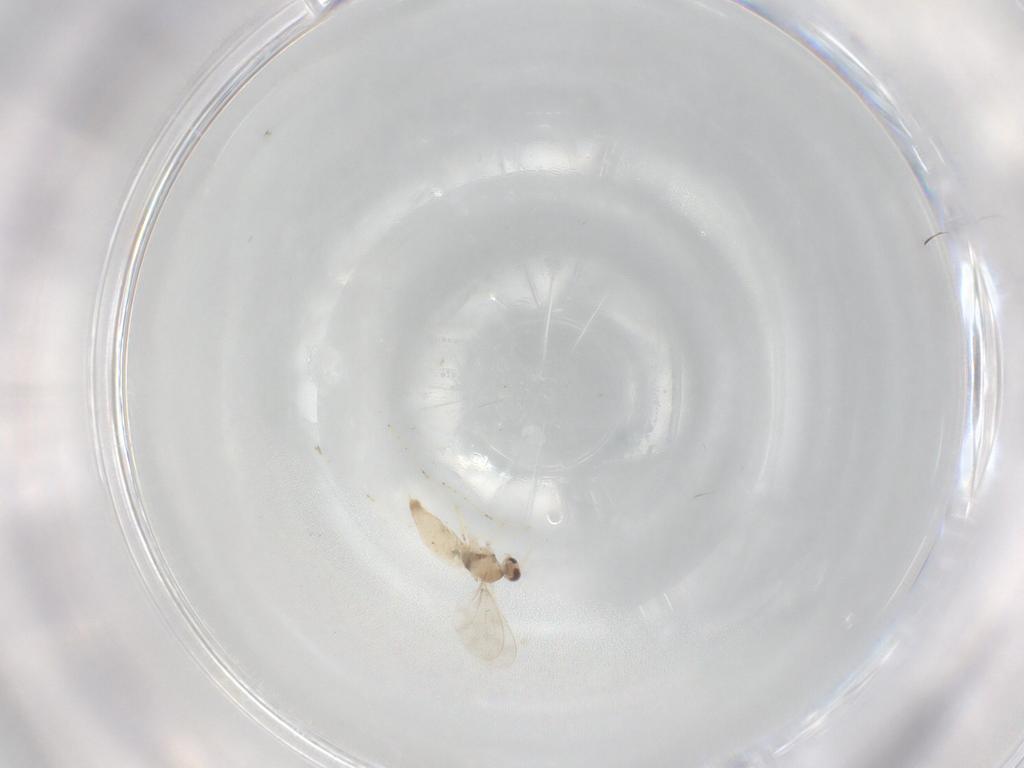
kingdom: Animalia
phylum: Arthropoda
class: Insecta
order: Diptera
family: Cecidomyiidae
